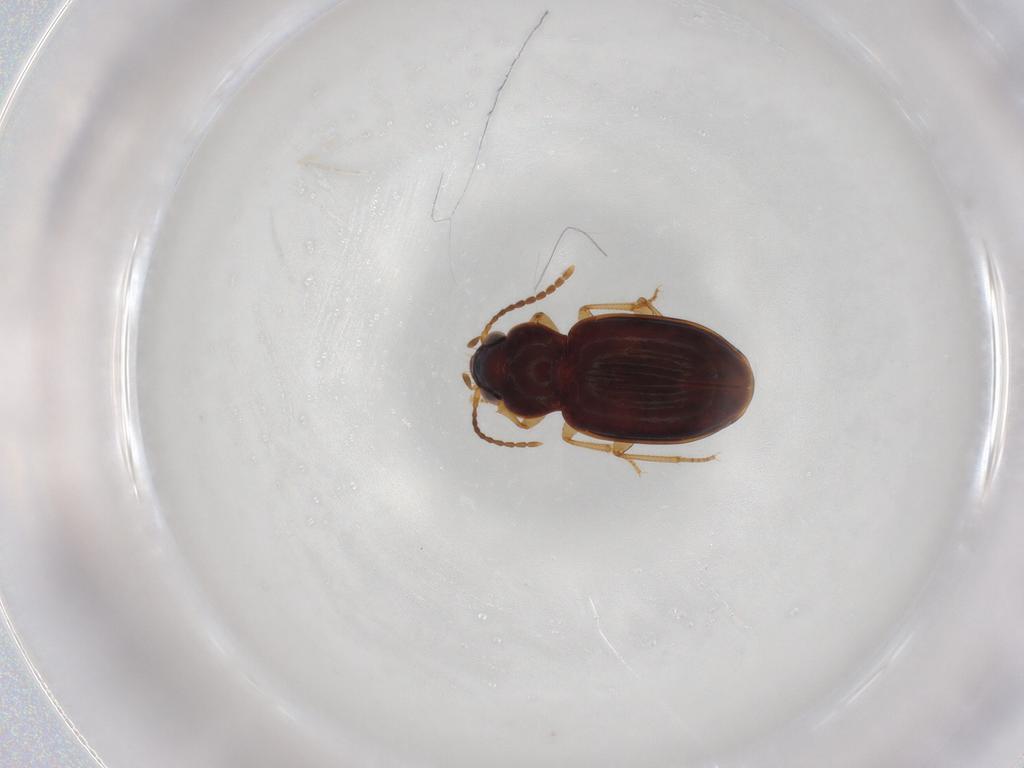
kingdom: Animalia
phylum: Arthropoda
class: Insecta
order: Coleoptera
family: Carabidae
